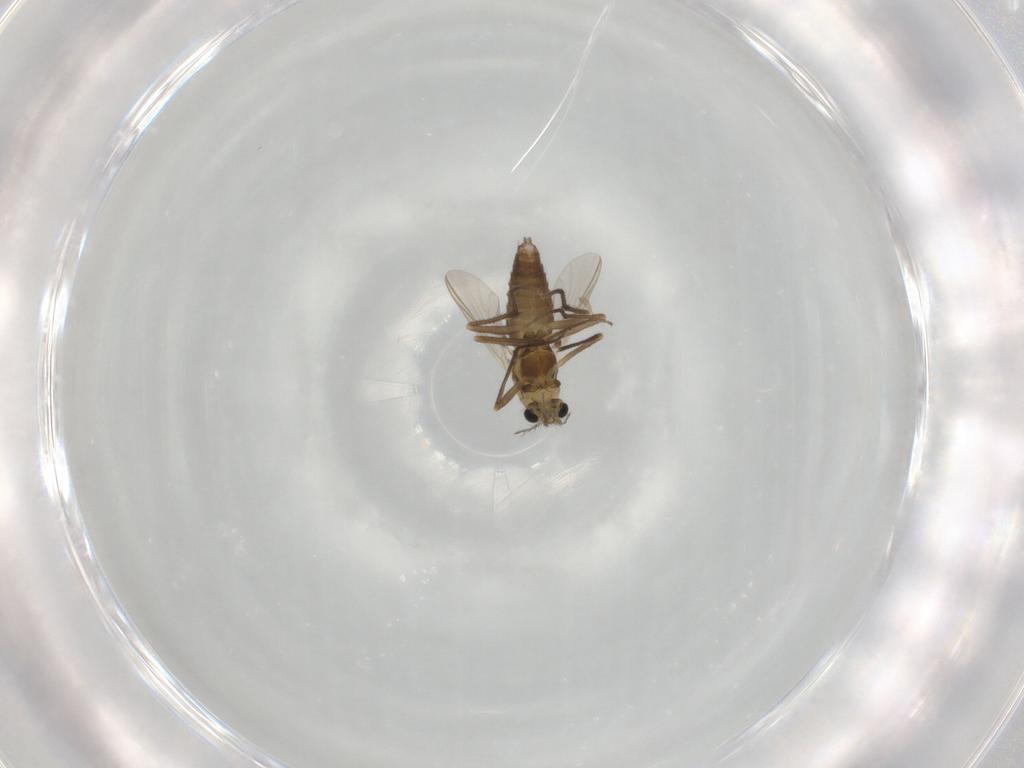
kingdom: Animalia
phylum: Arthropoda
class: Insecta
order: Diptera
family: Chironomidae
